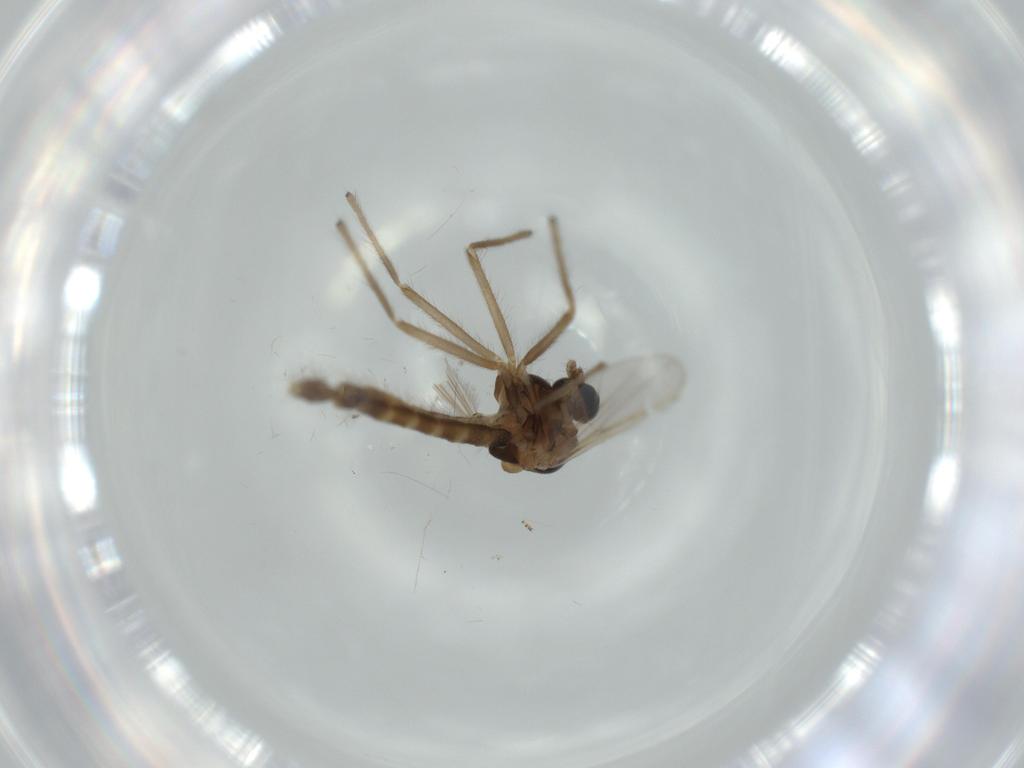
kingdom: Animalia
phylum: Arthropoda
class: Insecta
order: Diptera
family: Chironomidae
